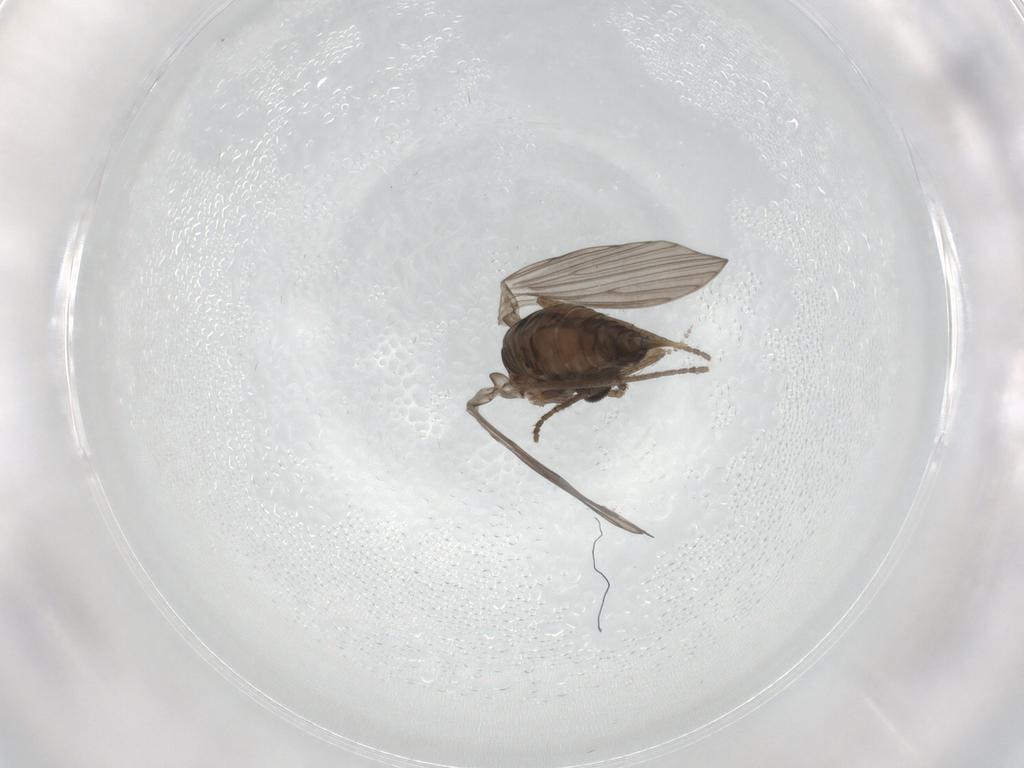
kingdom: Animalia
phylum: Arthropoda
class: Insecta
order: Diptera
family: Psychodidae
